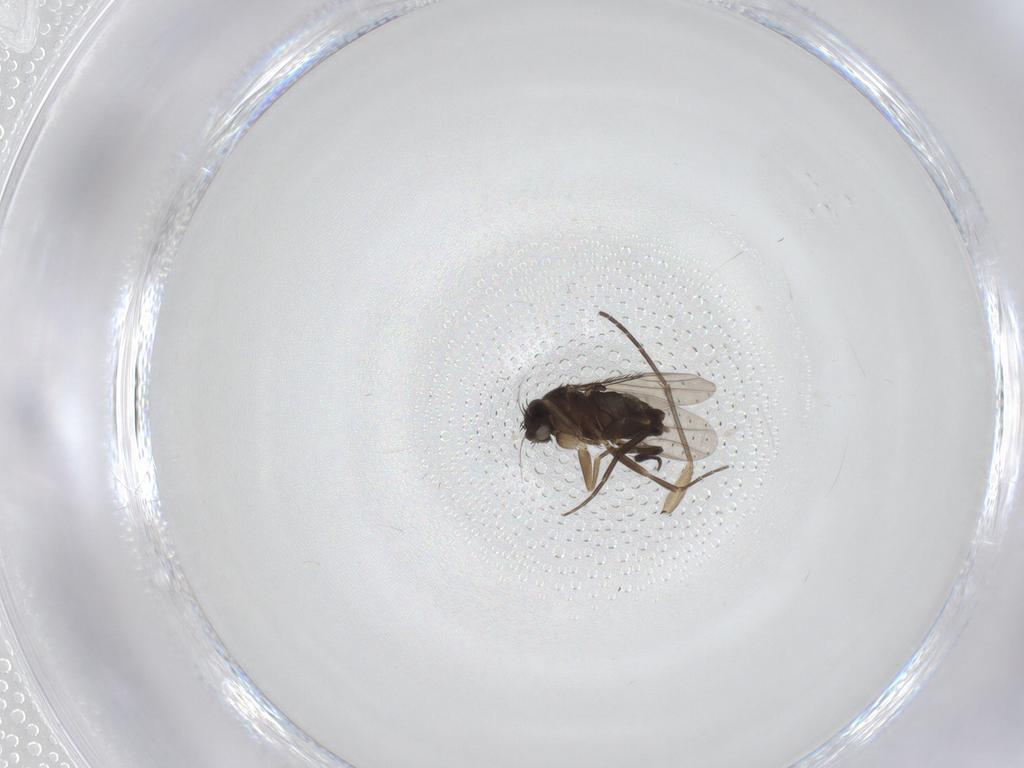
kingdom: Animalia
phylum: Arthropoda
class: Insecta
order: Diptera
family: Phoridae
